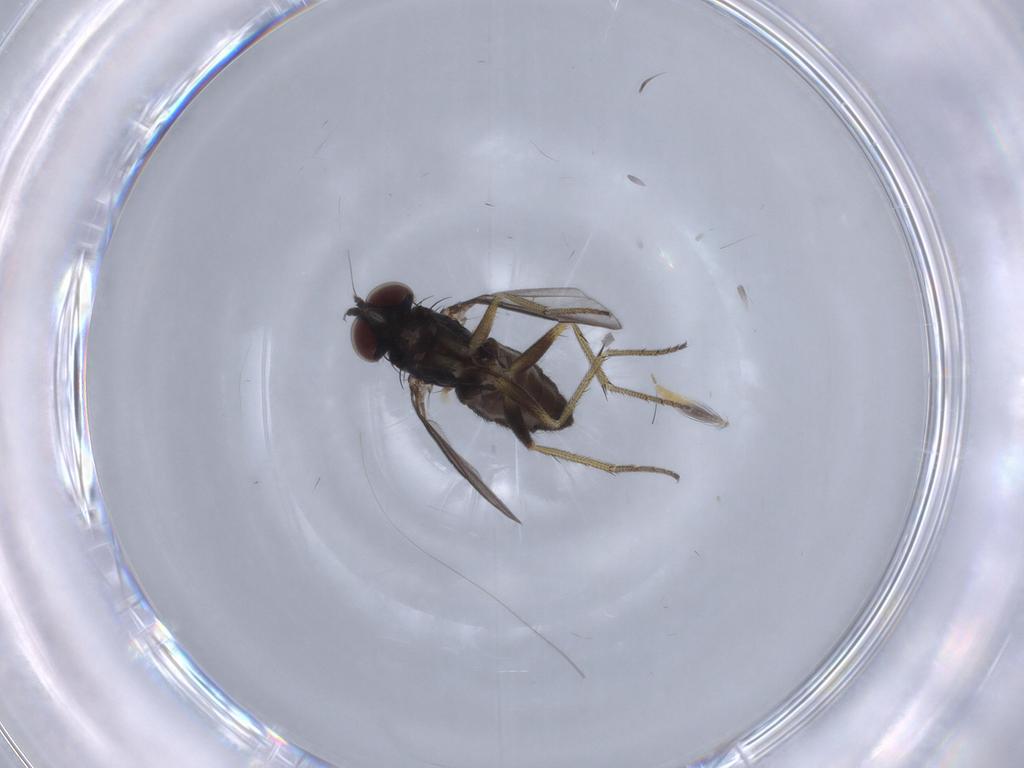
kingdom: Animalia
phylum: Arthropoda
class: Insecta
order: Diptera
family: Dolichopodidae
